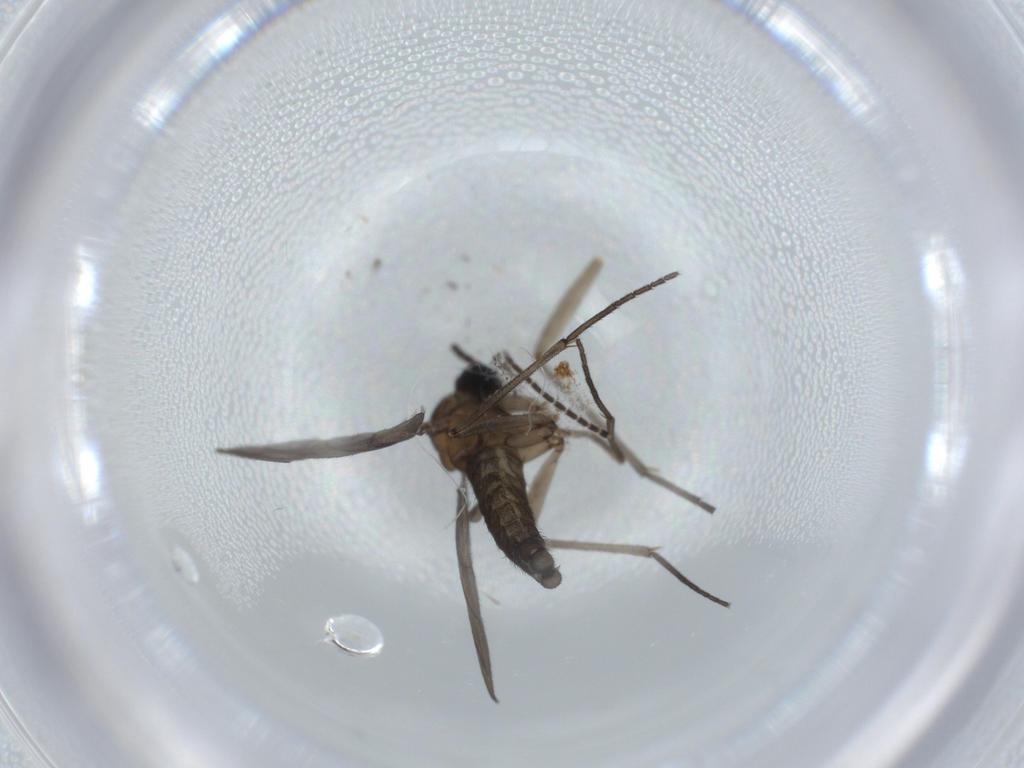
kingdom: Animalia
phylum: Arthropoda
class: Insecta
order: Diptera
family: Sciaridae
